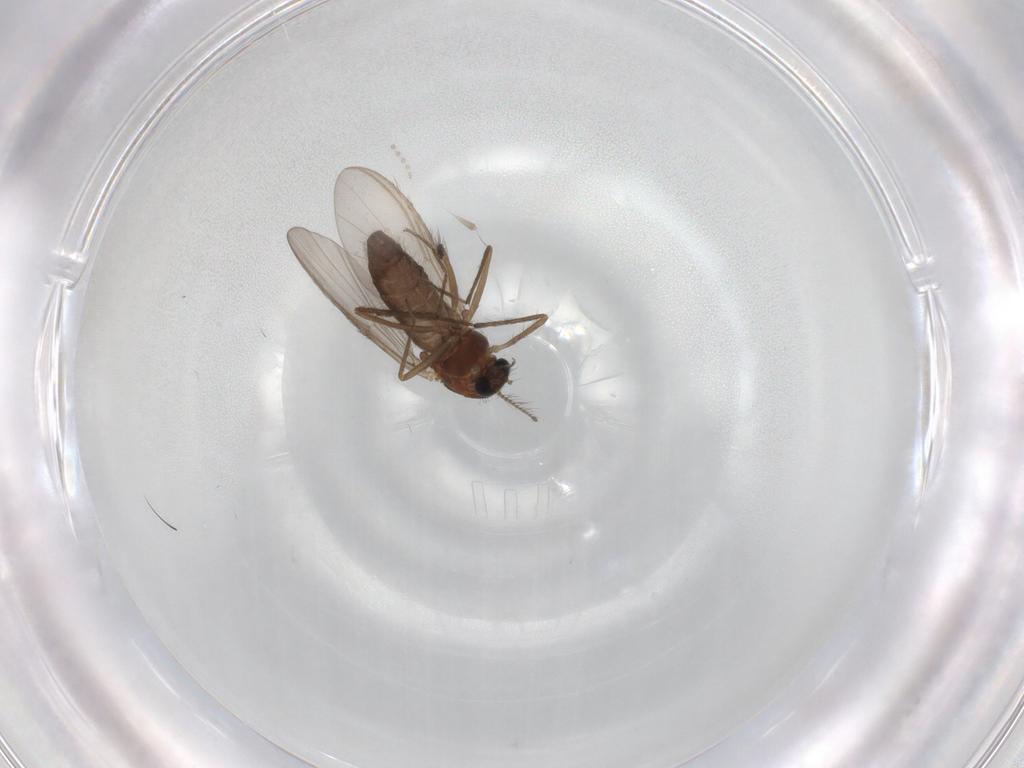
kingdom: Animalia
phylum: Arthropoda
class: Insecta
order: Diptera
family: Chironomidae
